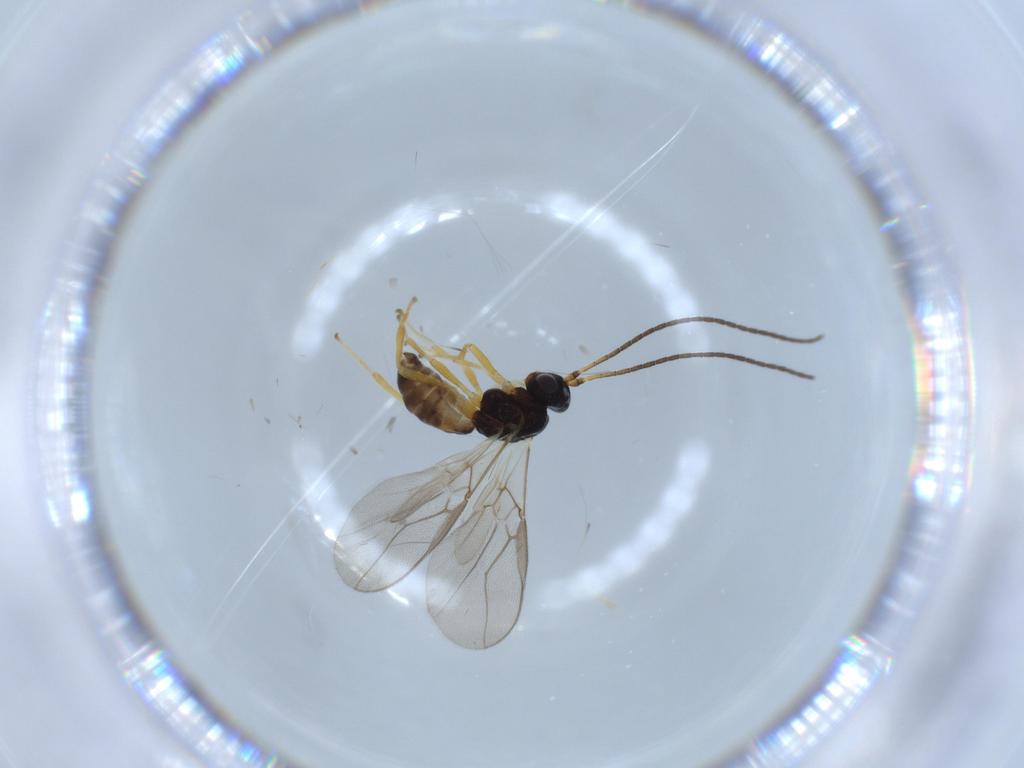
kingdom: Animalia
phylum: Arthropoda
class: Insecta
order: Hymenoptera
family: Braconidae
